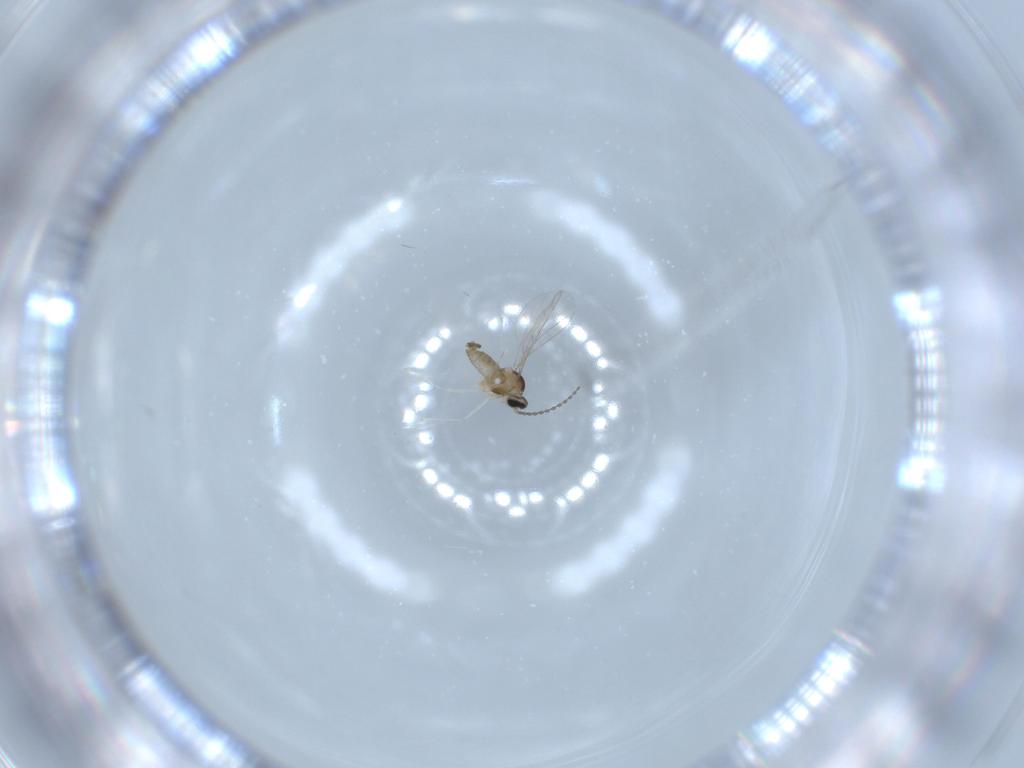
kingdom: Animalia
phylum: Arthropoda
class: Insecta
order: Diptera
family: Cecidomyiidae
